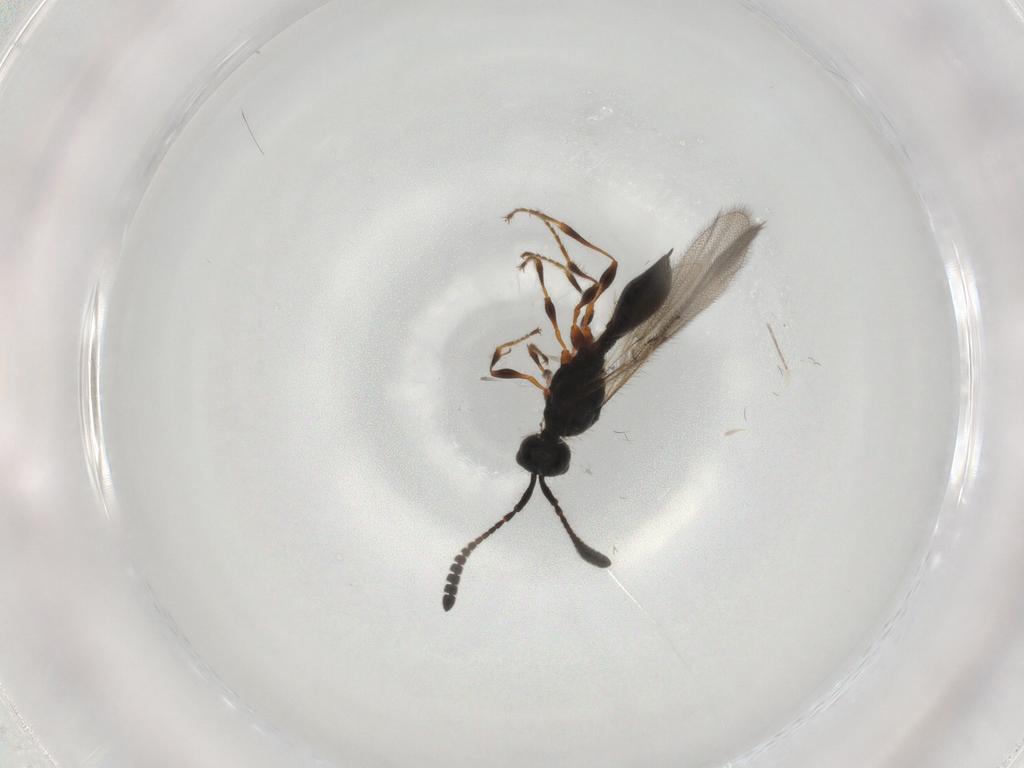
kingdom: Animalia
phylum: Arthropoda
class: Insecta
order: Hymenoptera
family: Diapriidae
